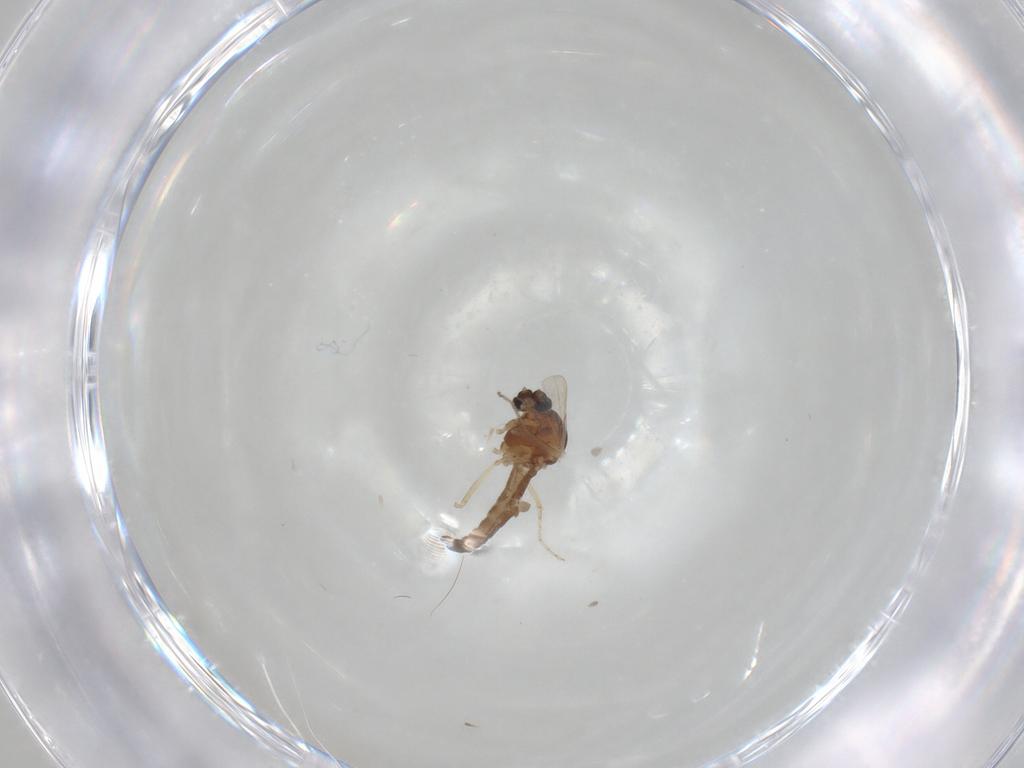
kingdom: Animalia
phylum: Arthropoda
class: Insecta
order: Diptera
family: Ceratopogonidae
